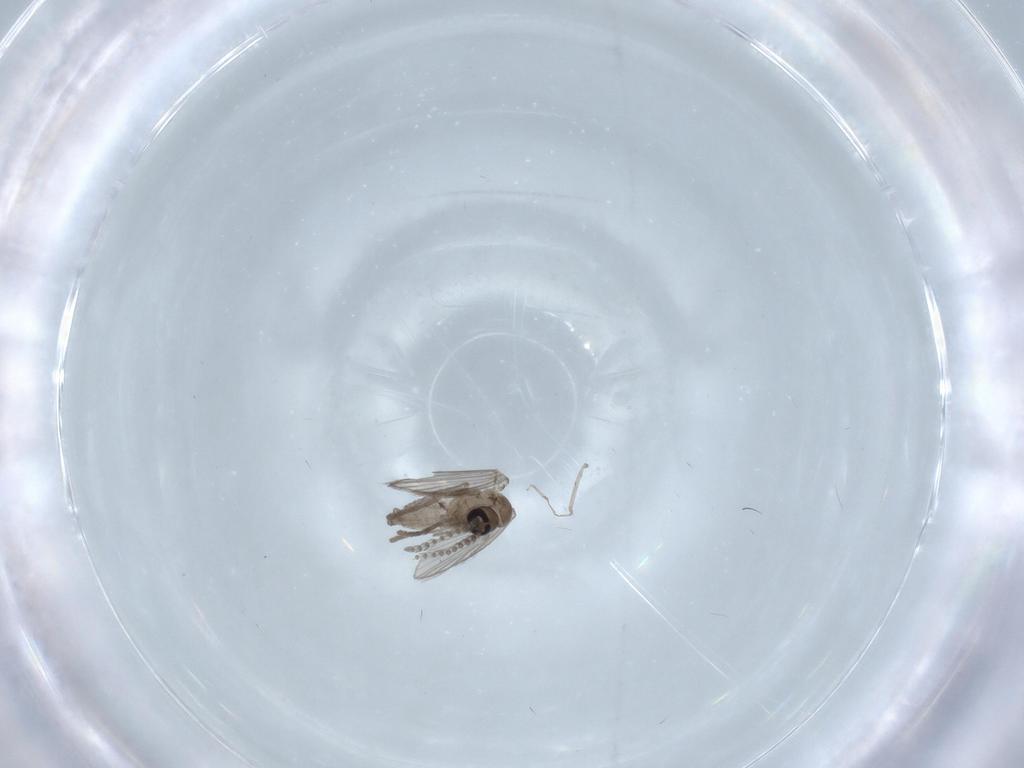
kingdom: Animalia
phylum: Arthropoda
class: Insecta
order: Diptera
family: Psychodidae
